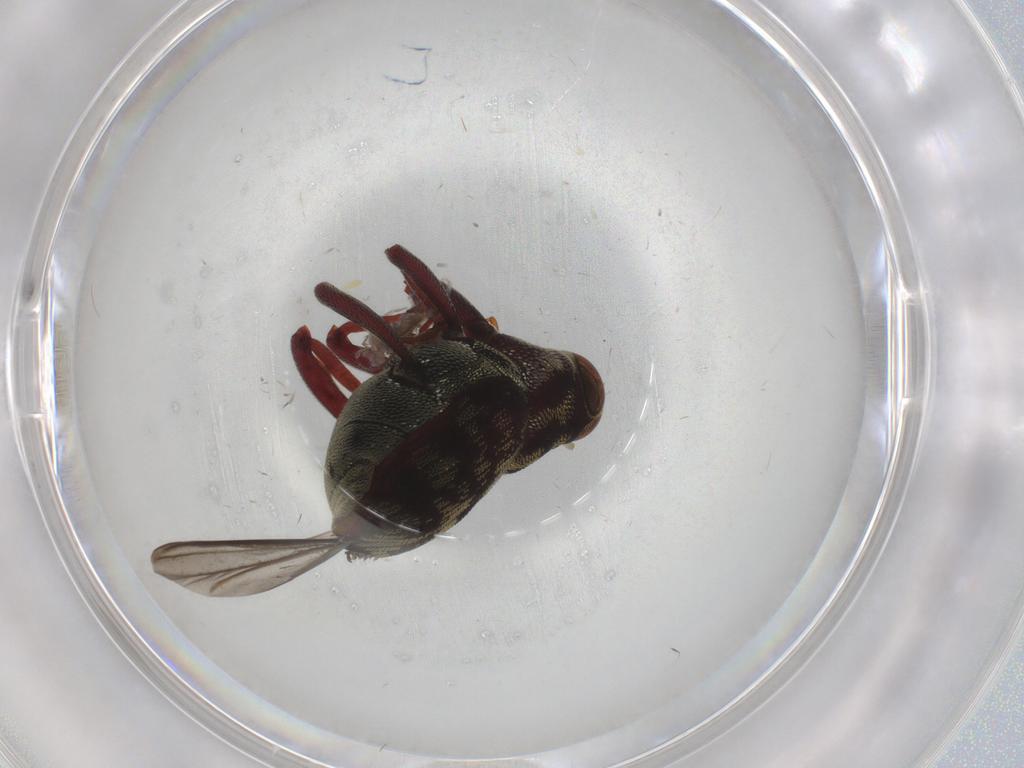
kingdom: Animalia
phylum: Arthropoda
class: Insecta
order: Coleoptera
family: Curculionidae
